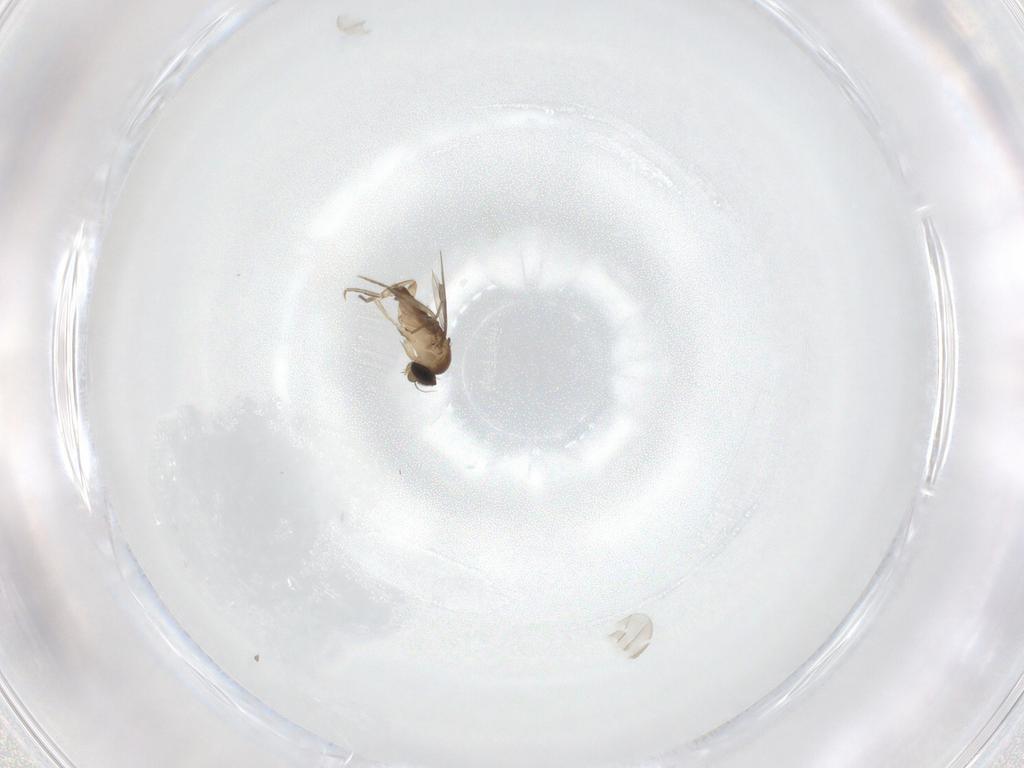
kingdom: Animalia
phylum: Arthropoda
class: Insecta
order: Diptera
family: Phoridae
